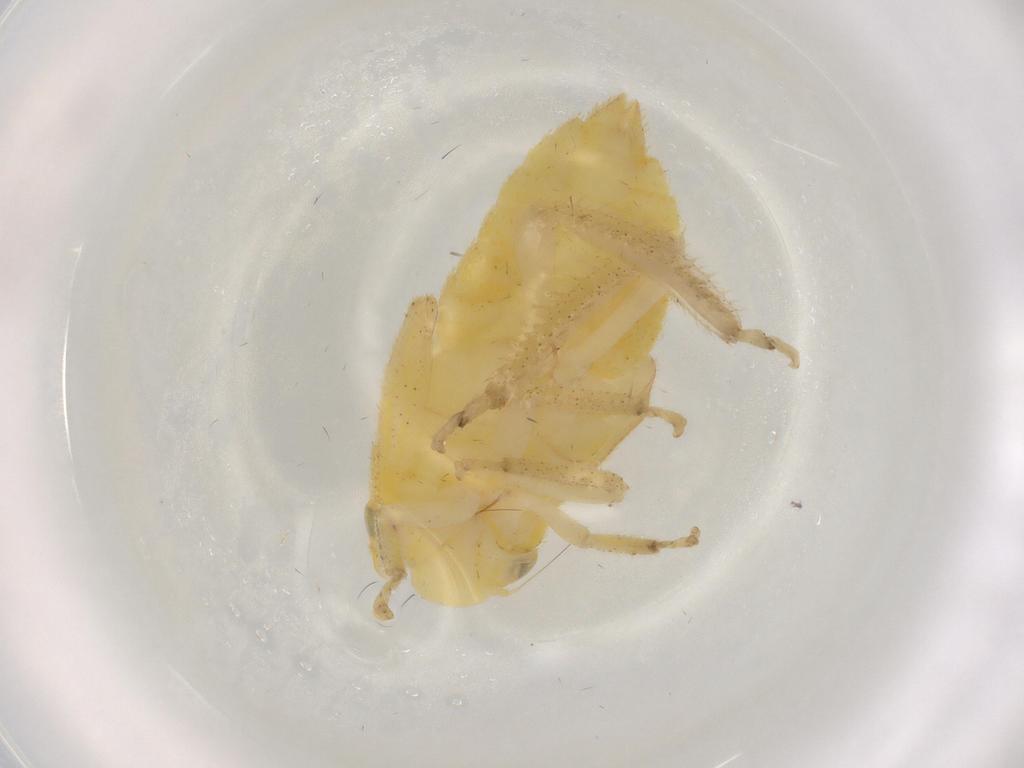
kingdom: Animalia
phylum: Arthropoda
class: Insecta
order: Hemiptera
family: Cicadellidae
